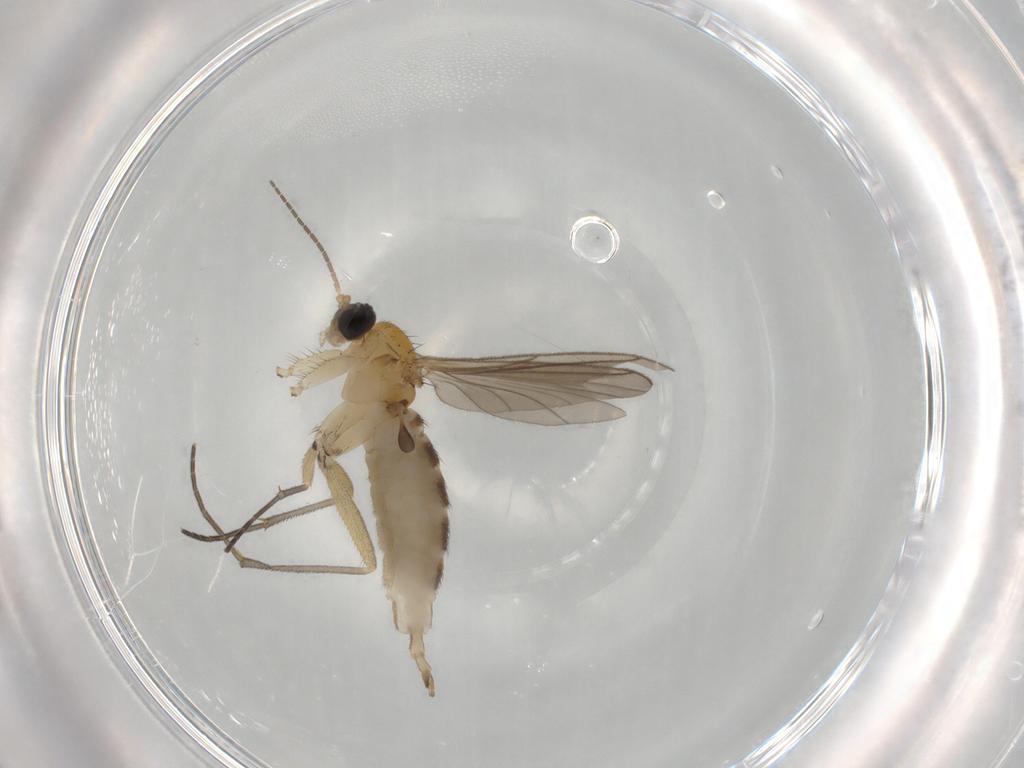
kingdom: Animalia
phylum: Arthropoda
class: Insecta
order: Diptera
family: Sciaridae
